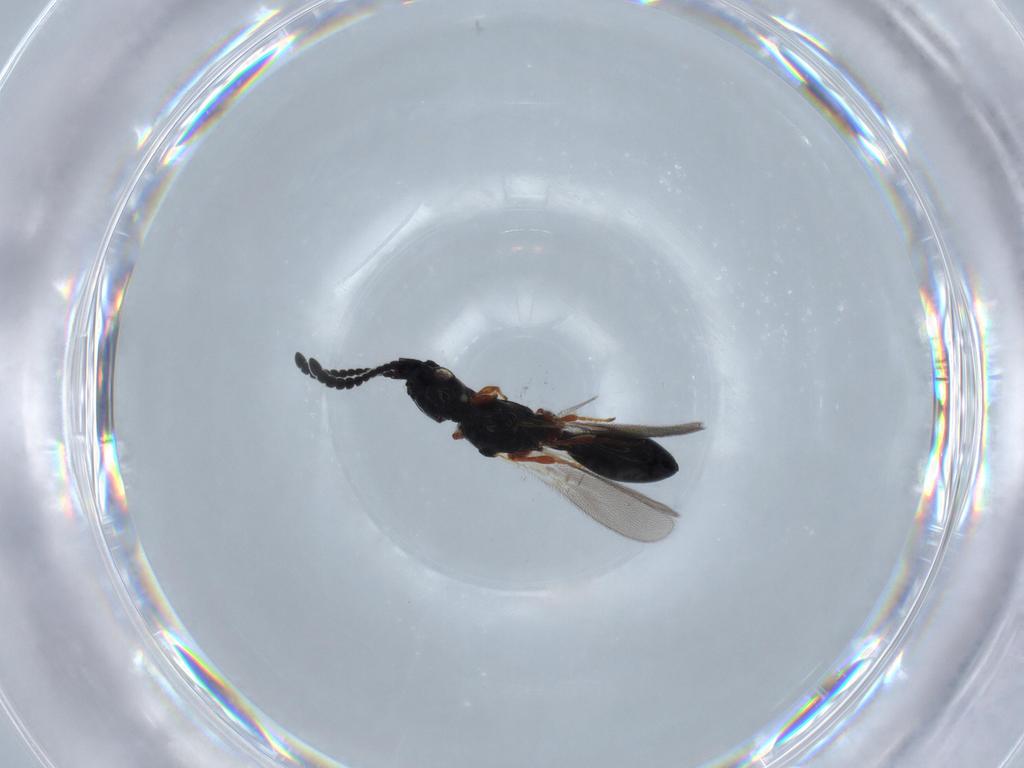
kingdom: Animalia
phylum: Arthropoda
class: Insecta
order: Hymenoptera
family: Diapriidae
